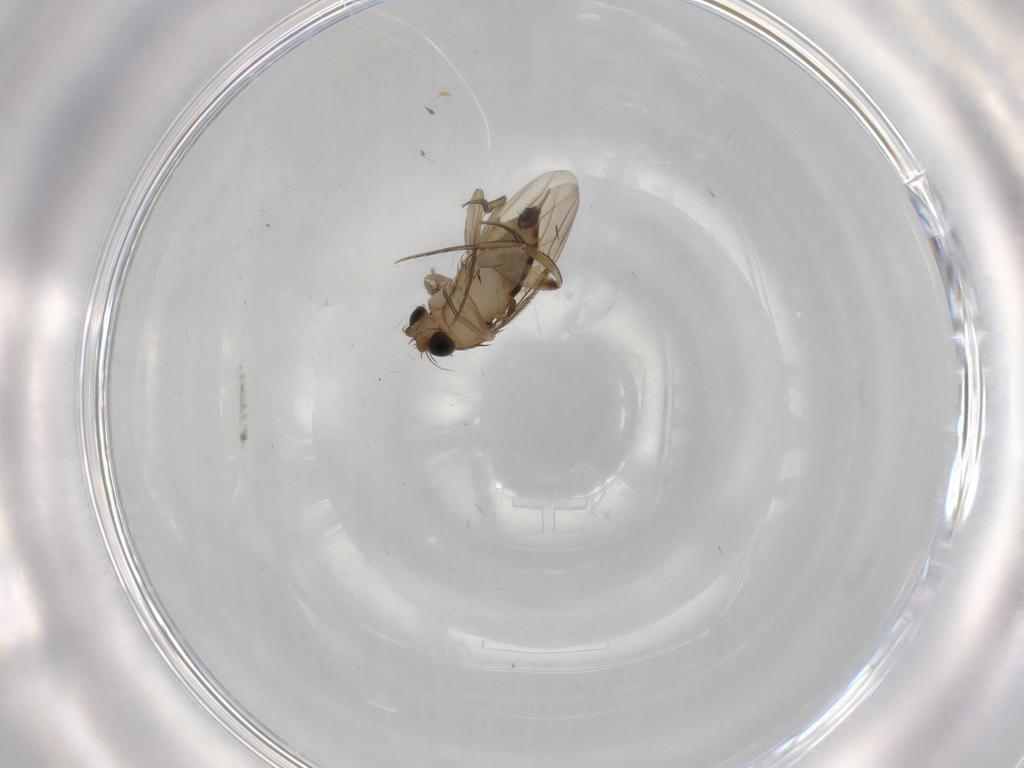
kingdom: Animalia
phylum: Arthropoda
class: Insecta
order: Diptera
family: Phoridae
